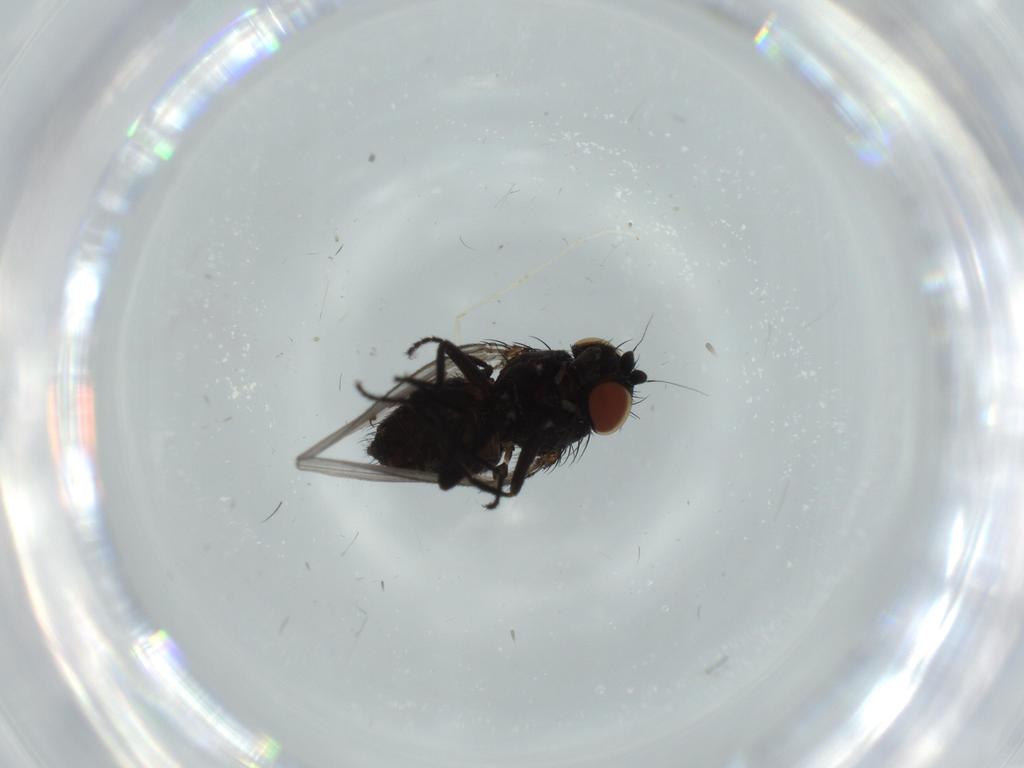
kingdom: Animalia
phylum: Arthropoda
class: Insecta
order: Diptera
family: Milichiidae
